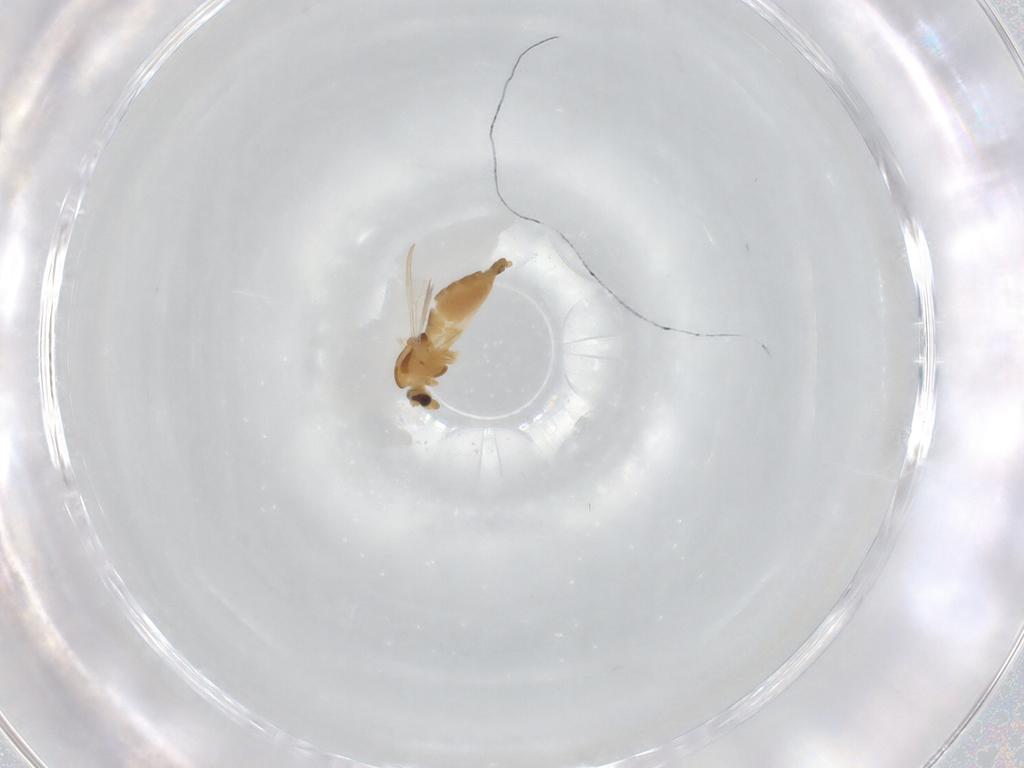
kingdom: Animalia
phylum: Arthropoda
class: Insecta
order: Diptera
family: Chironomidae
